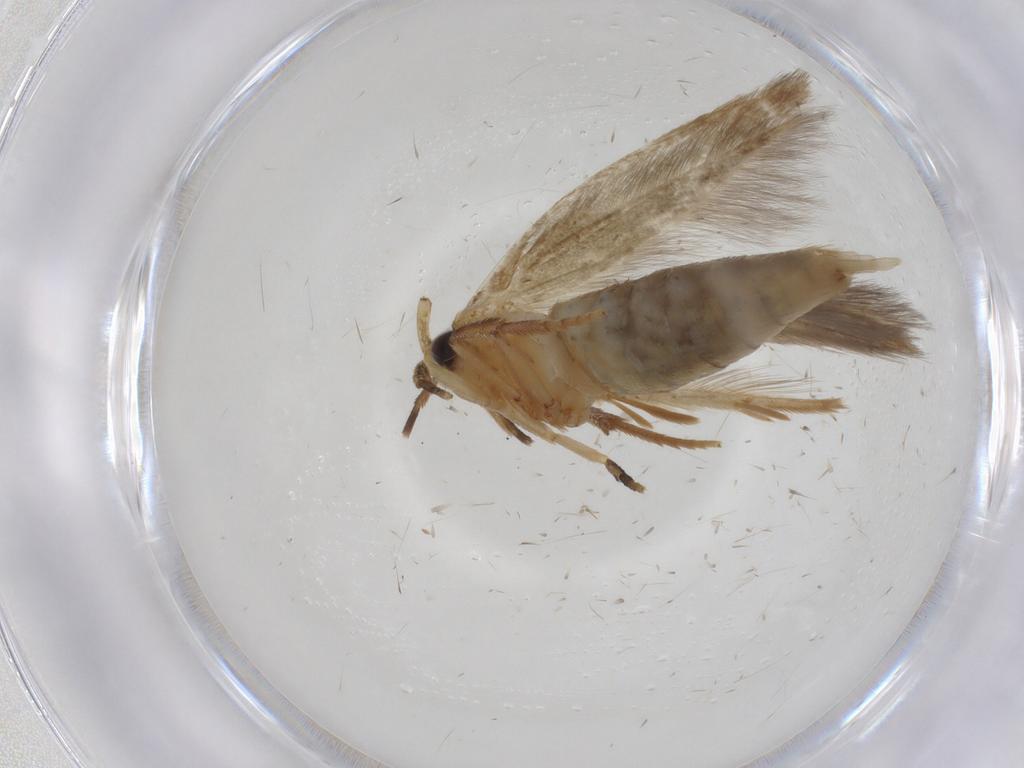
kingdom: Animalia
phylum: Arthropoda
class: Insecta
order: Lepidoptera
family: Tineidae
